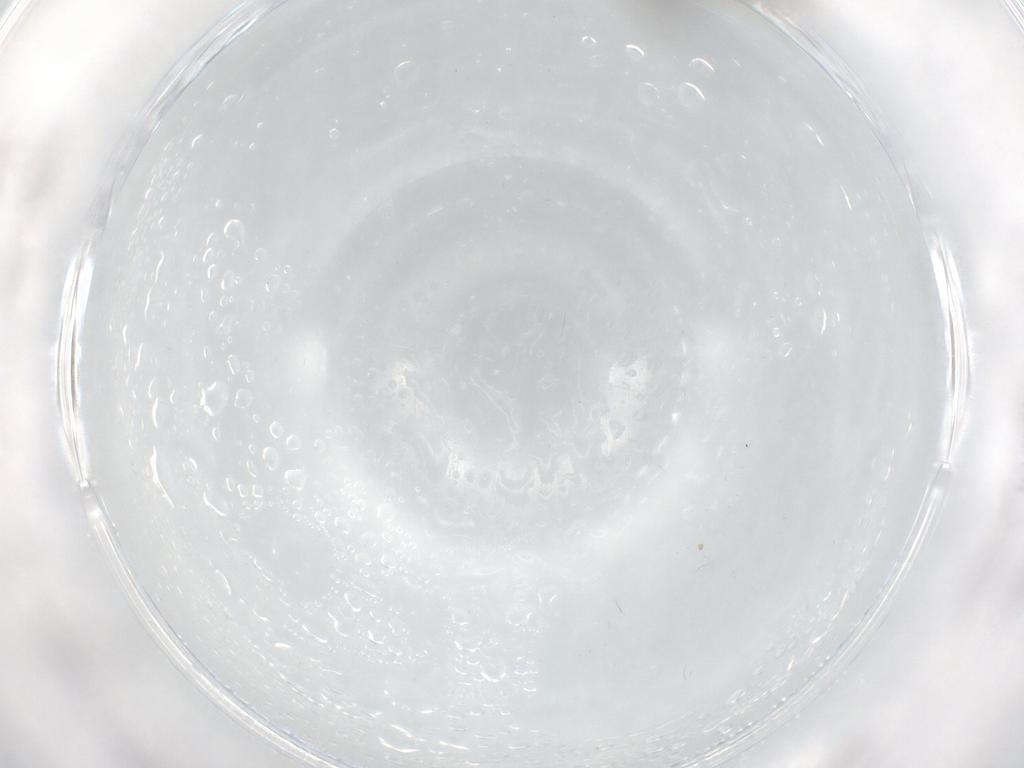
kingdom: Animalia
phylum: Arthropoda
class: Insecta
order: Diptera
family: Chironomidae
